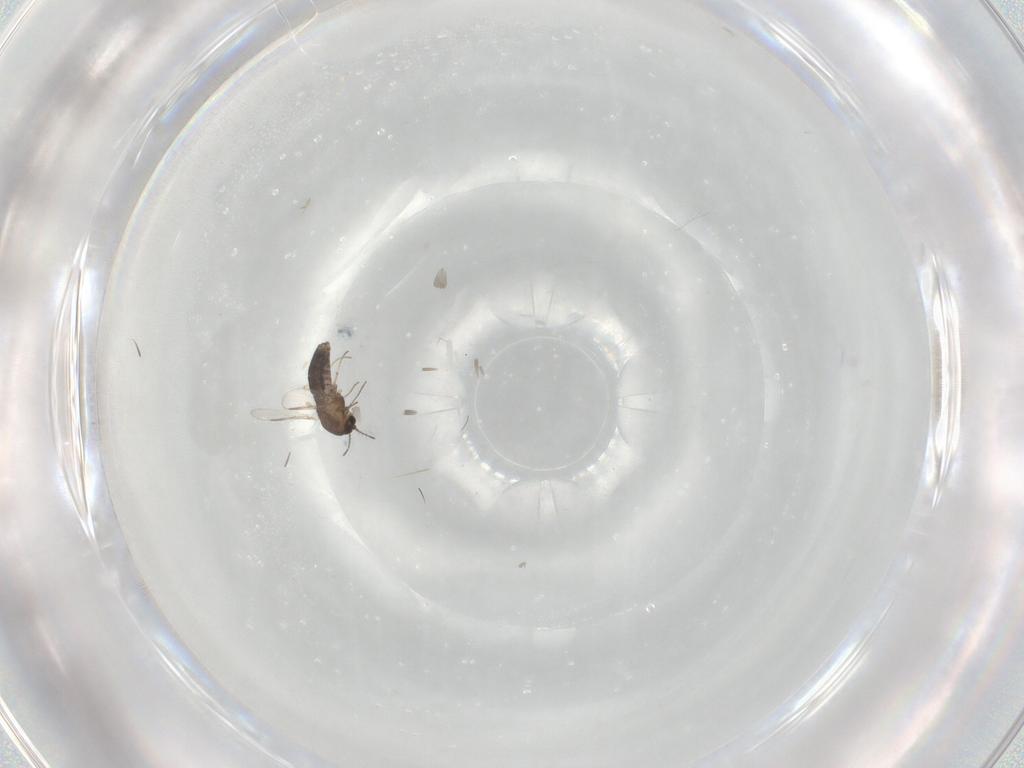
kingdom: Animalia
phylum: Arthropoda
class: Insecta
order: Diptera
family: Chironomidae
